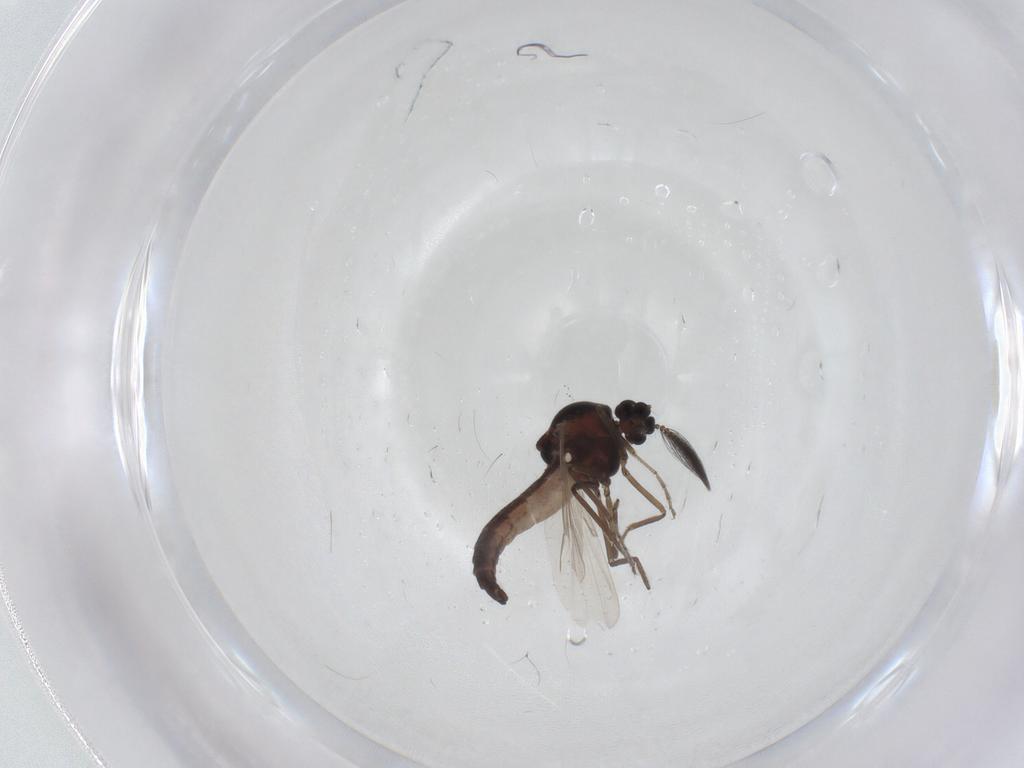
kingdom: Animalia
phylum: Arthropoda
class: Insecta
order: Diptera
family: Ceratopogonidae
